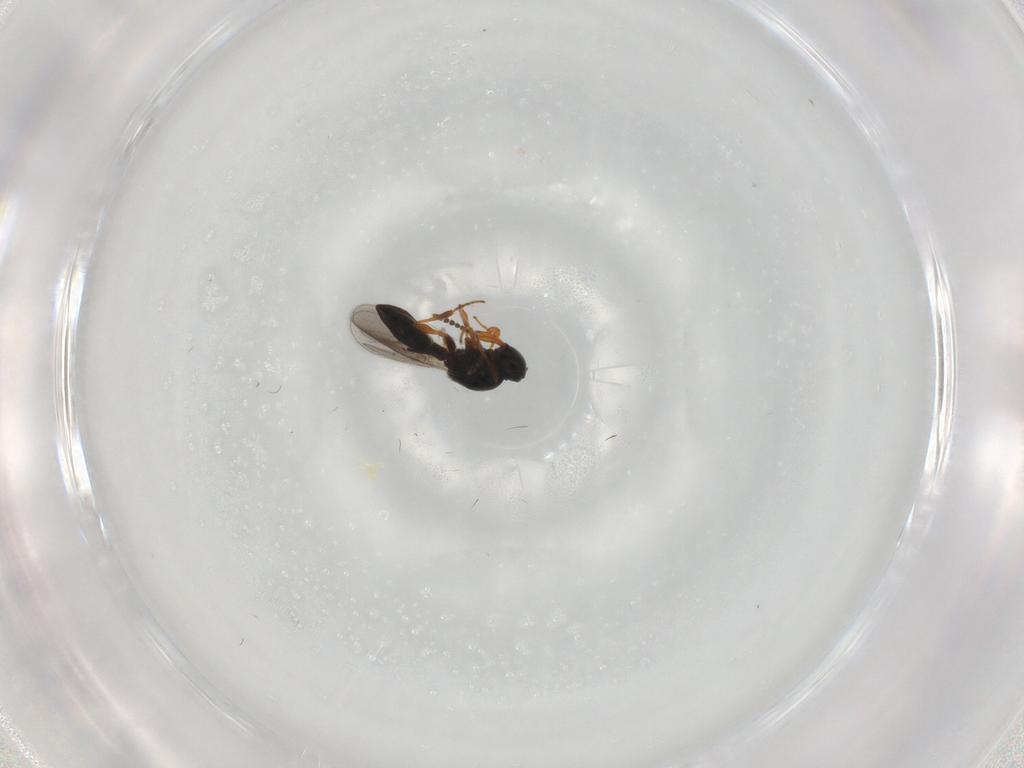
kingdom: Animalia
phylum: Arthropoda
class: Insecta
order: Hymenoptera
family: Platygastridae
